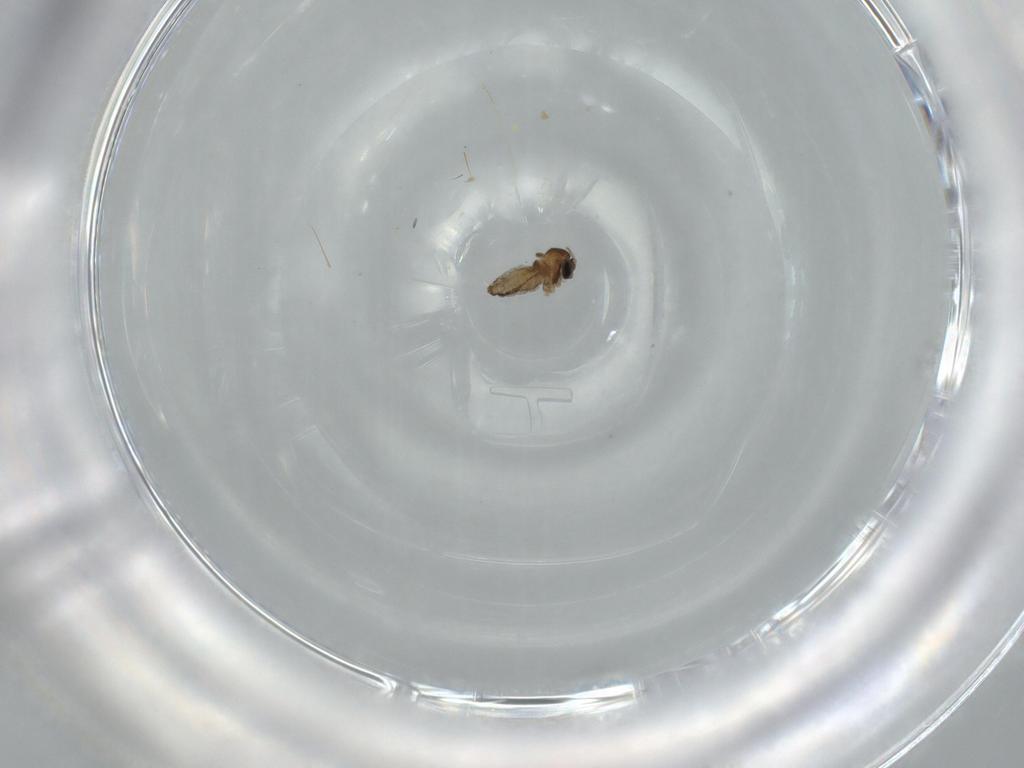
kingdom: Animalia
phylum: Arthropoda
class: Insecta
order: Diptera
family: Cecidomyiidae
